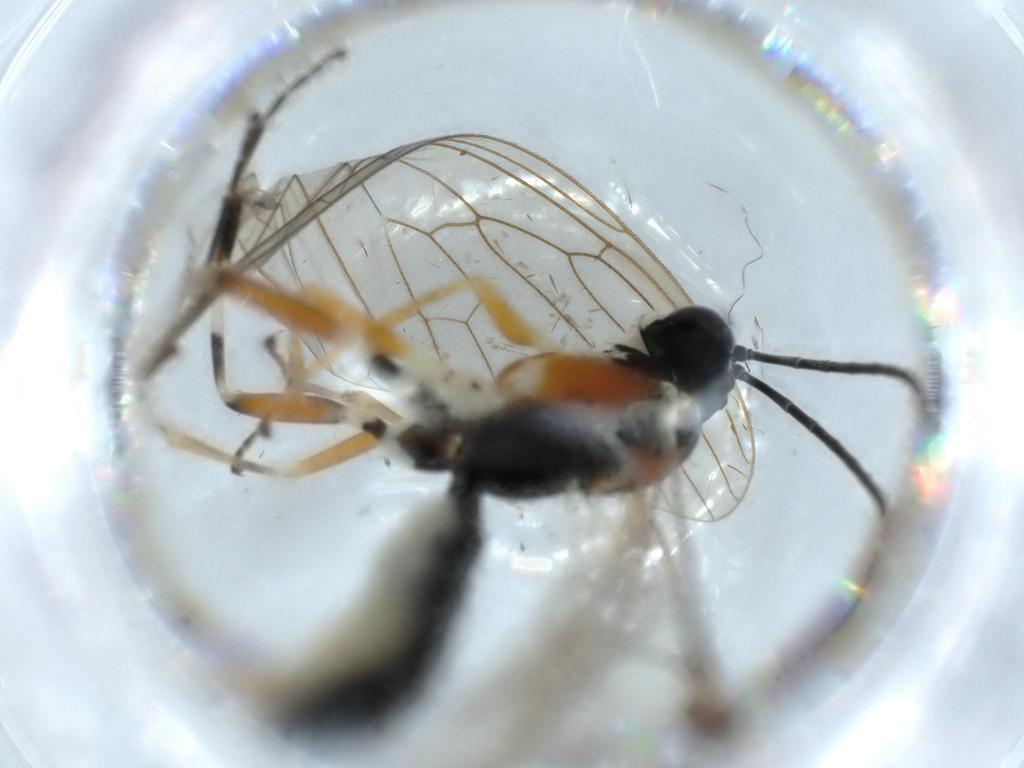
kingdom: Animalia
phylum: Arthropoda
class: Insecta
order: Hymenoptera
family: Ichneumonidae
